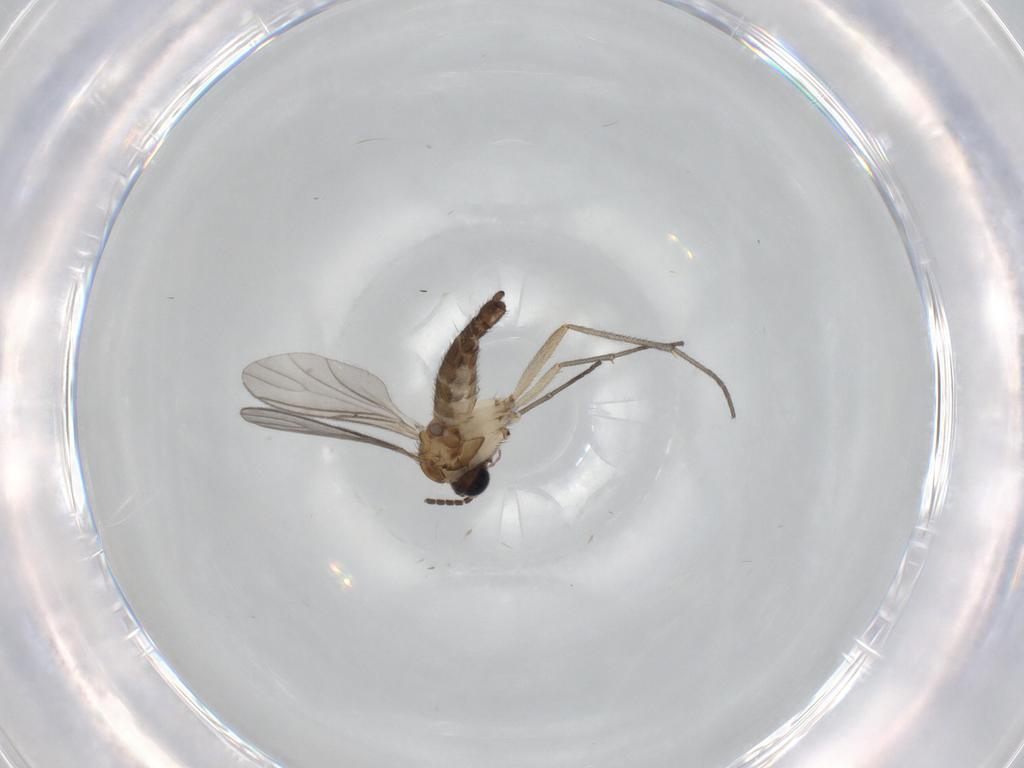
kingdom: Animalia
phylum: Arthropoda
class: Insecta
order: Diptera
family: Sciaridae
